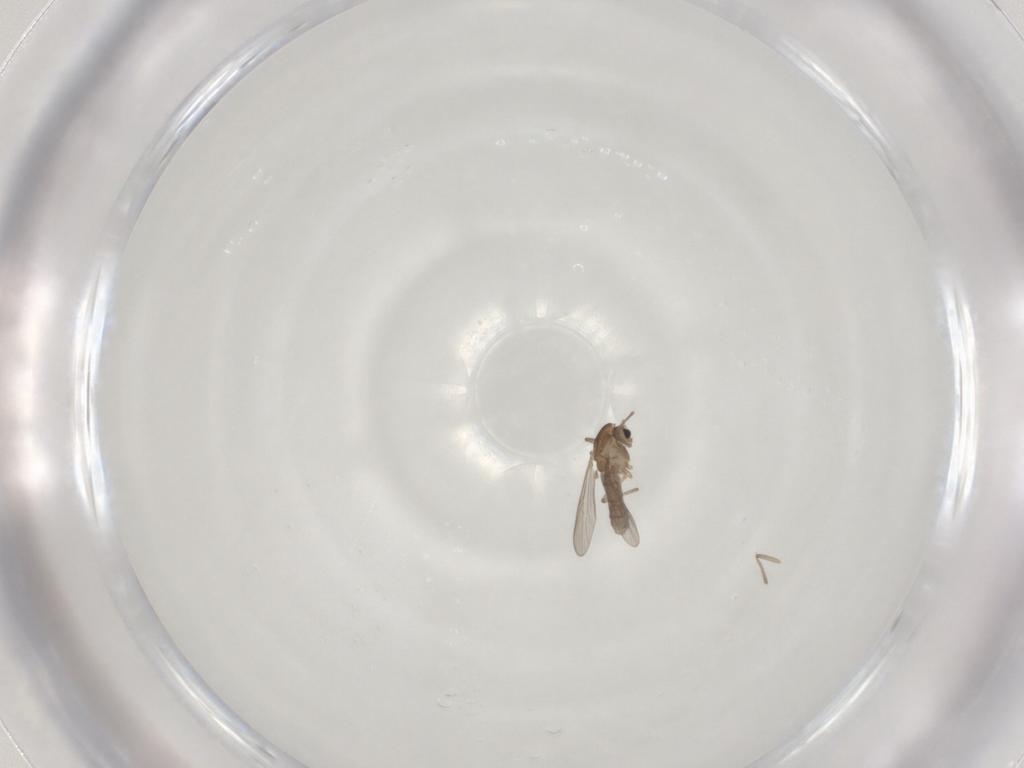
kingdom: Animalia
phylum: Arthropoda
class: Insecta
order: Diptera
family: Chironomidae
